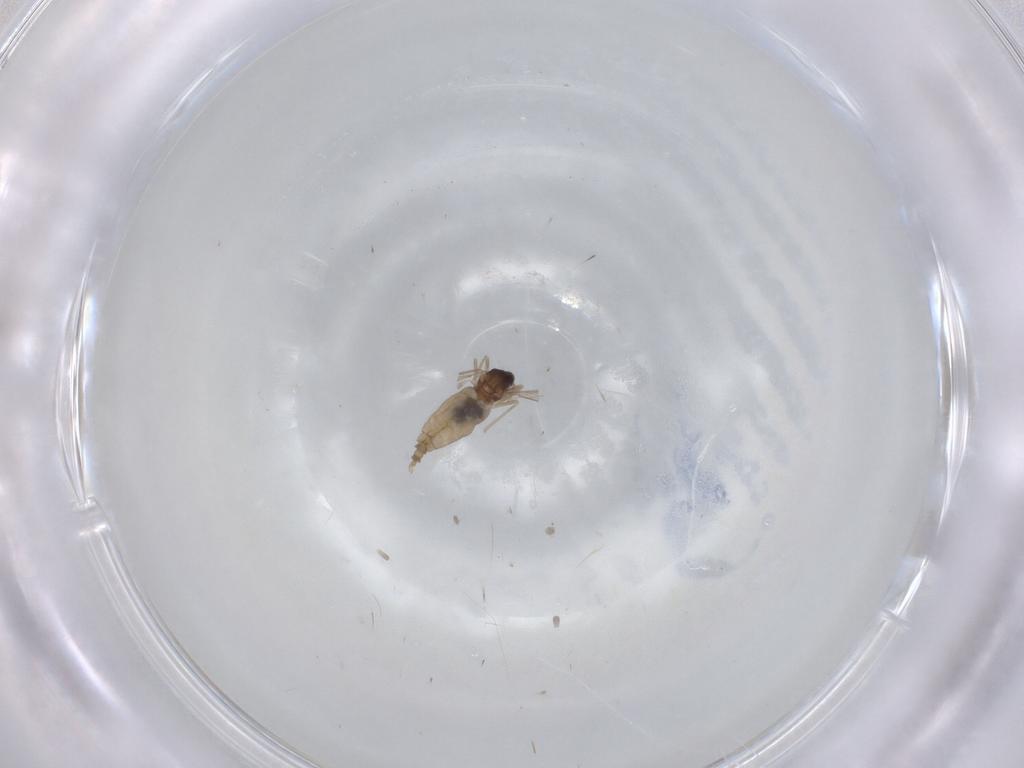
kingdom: Animalia
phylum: Arthropoda
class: Insecta
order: Diptera
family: Cecidomyiidae
